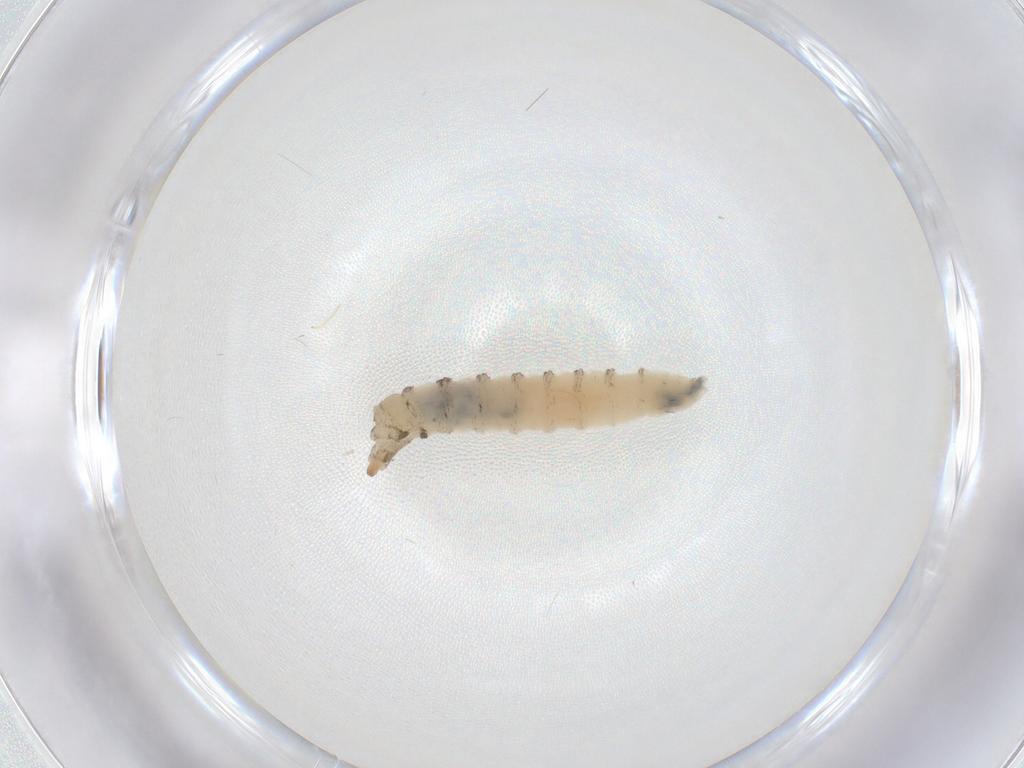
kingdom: Animalia
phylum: Arthropoda
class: Insecta
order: Diptera
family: Drosophilidae
